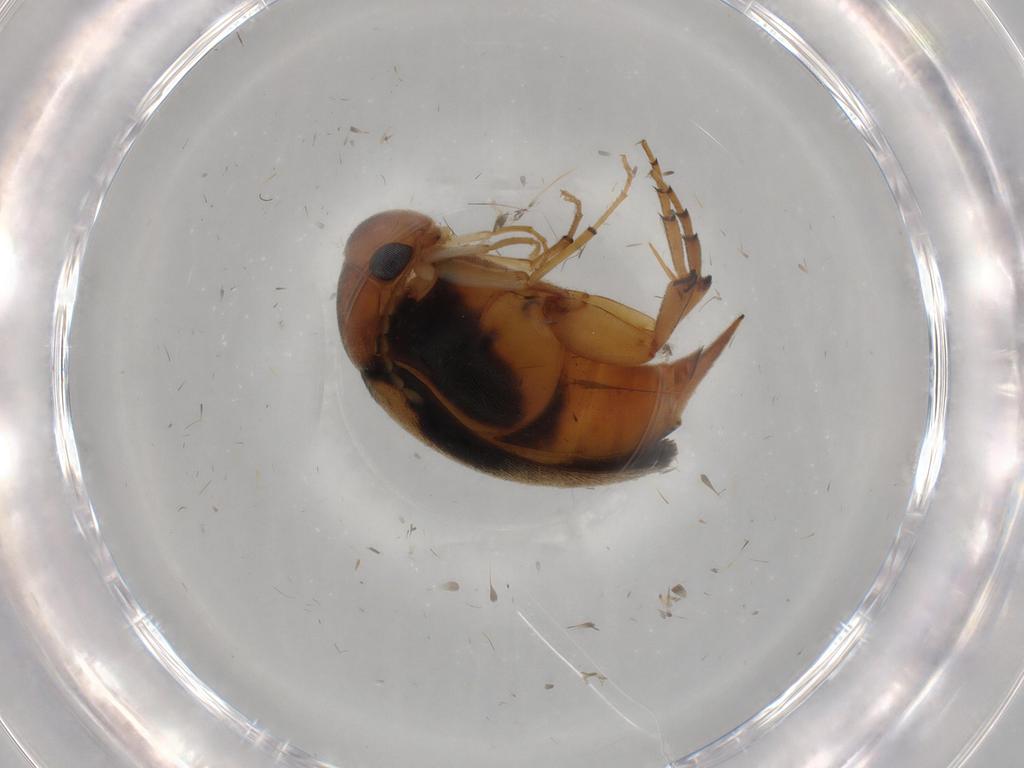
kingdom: Animalia
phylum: Arthropoda
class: Insecta
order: Coleoptera
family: Mordellidae
